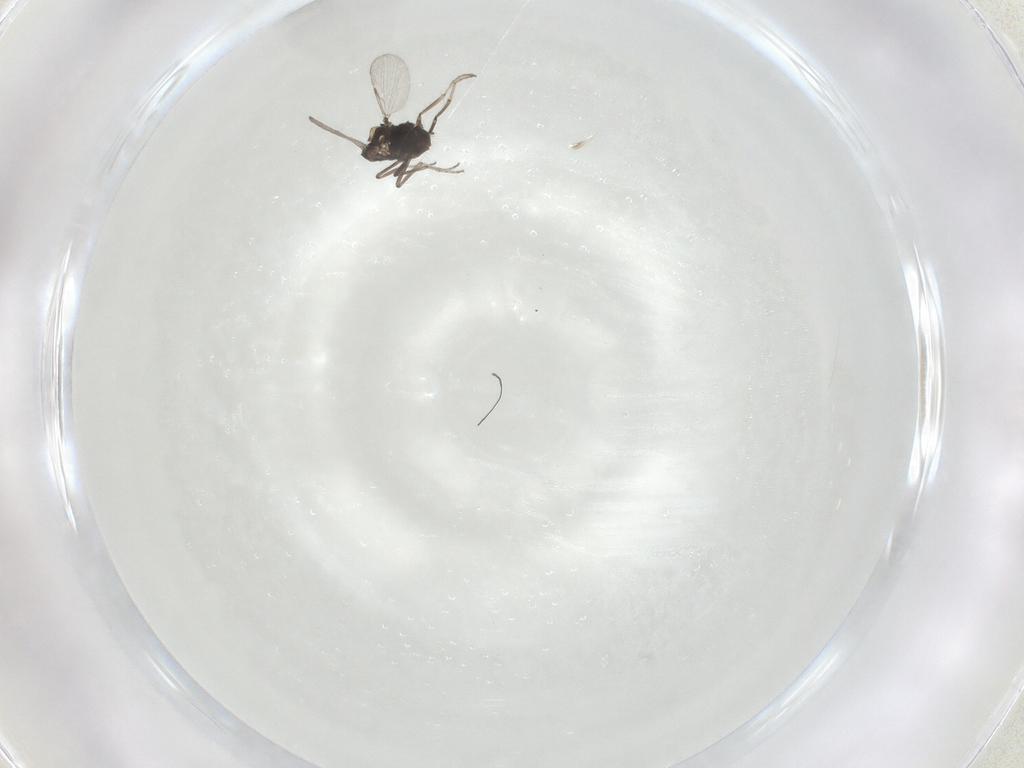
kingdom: Animalia
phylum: Arthropoda
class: Insecta
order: Diptera
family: Ceratopogonidae
